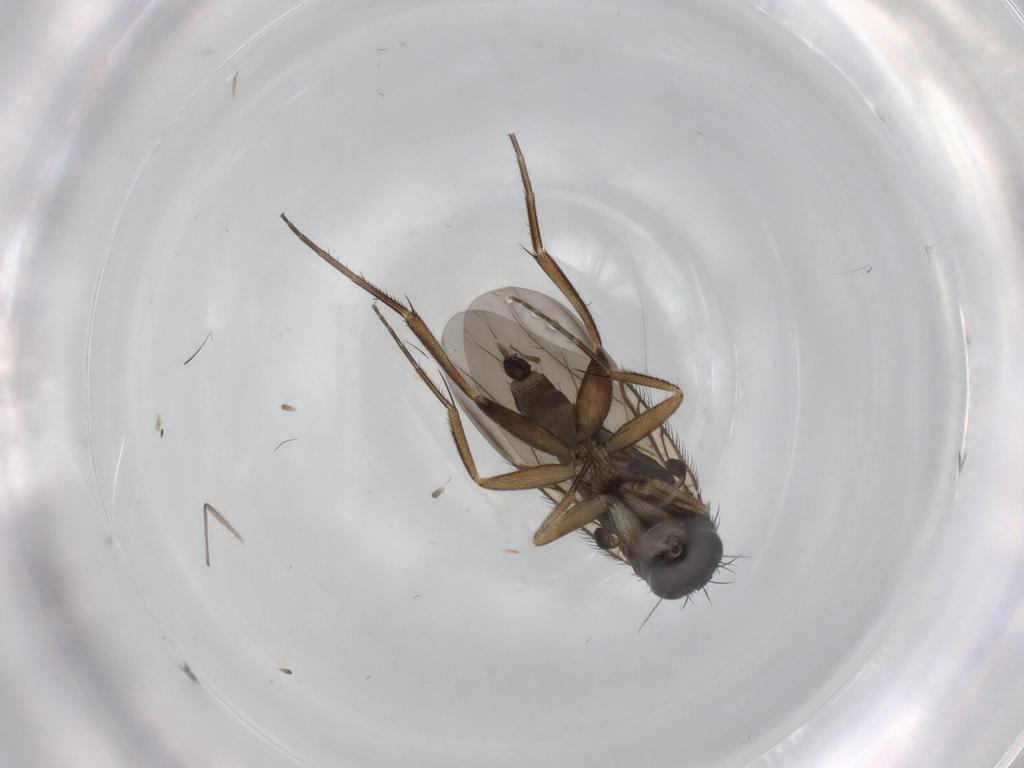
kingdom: Animalia
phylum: Arthropoda
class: Insecta
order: Diptera
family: Phoridae
